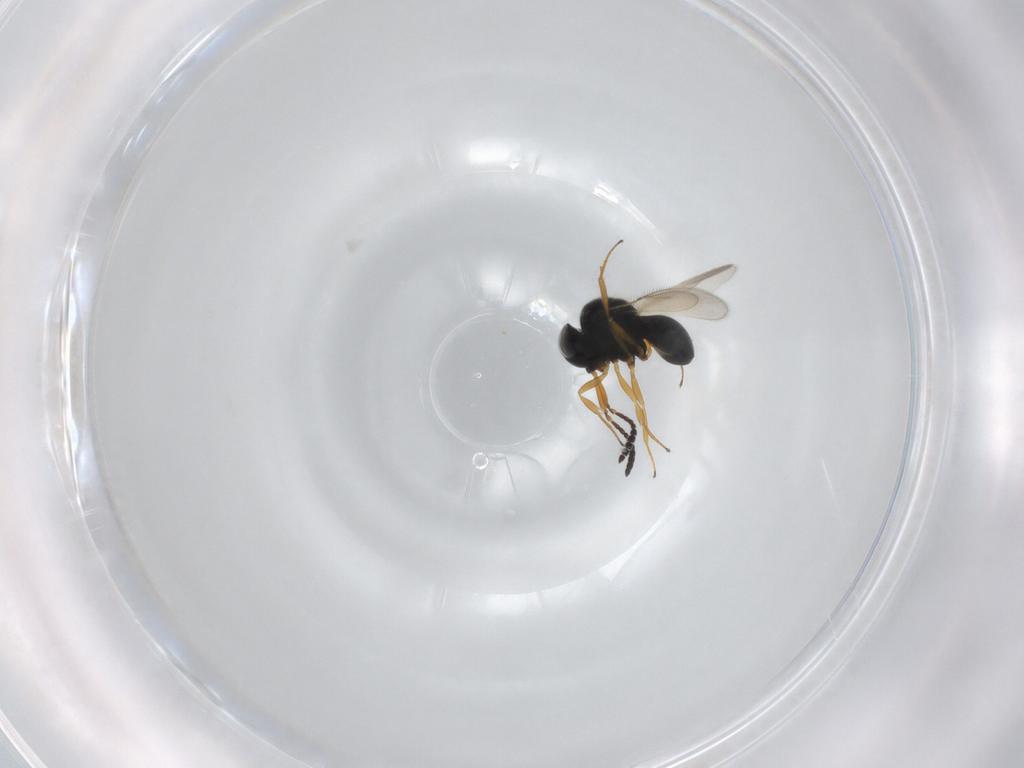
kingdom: Animalia
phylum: Arthropoda
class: Insecta
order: Hymenoptera
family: Scelionidae
